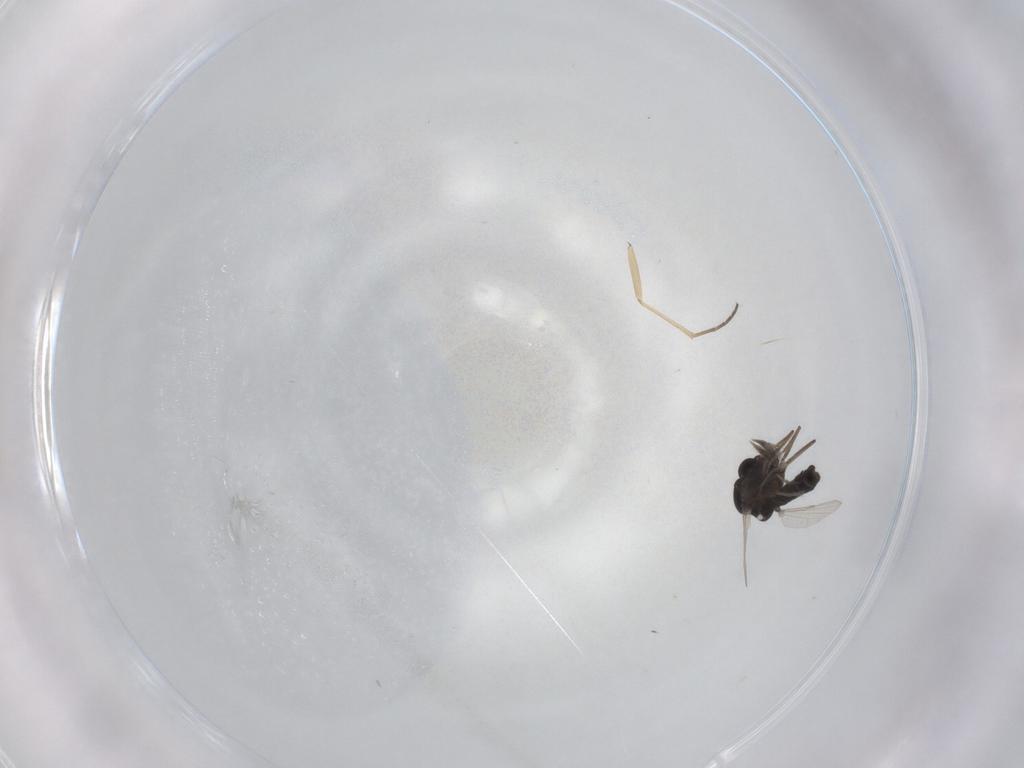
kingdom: Animalia
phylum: Arthropoda
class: Insecta
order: Diptera
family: Ceratopogonidae
